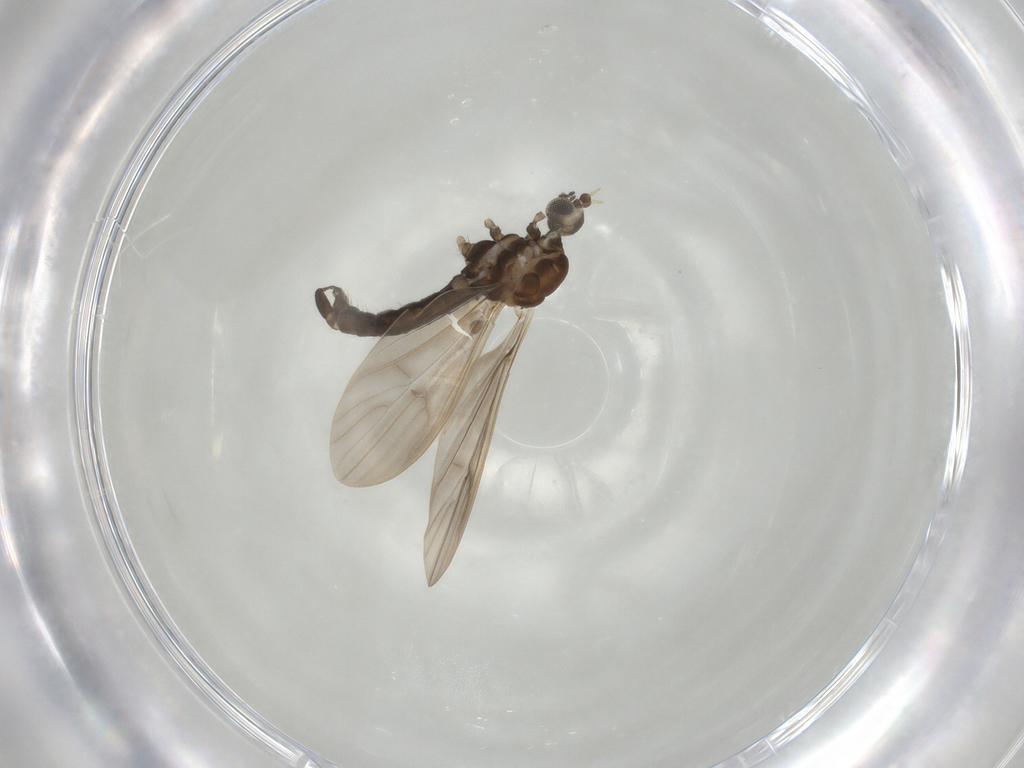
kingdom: Animalia
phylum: Arthropoda
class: Insecta
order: Diptera
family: Limoniidae
